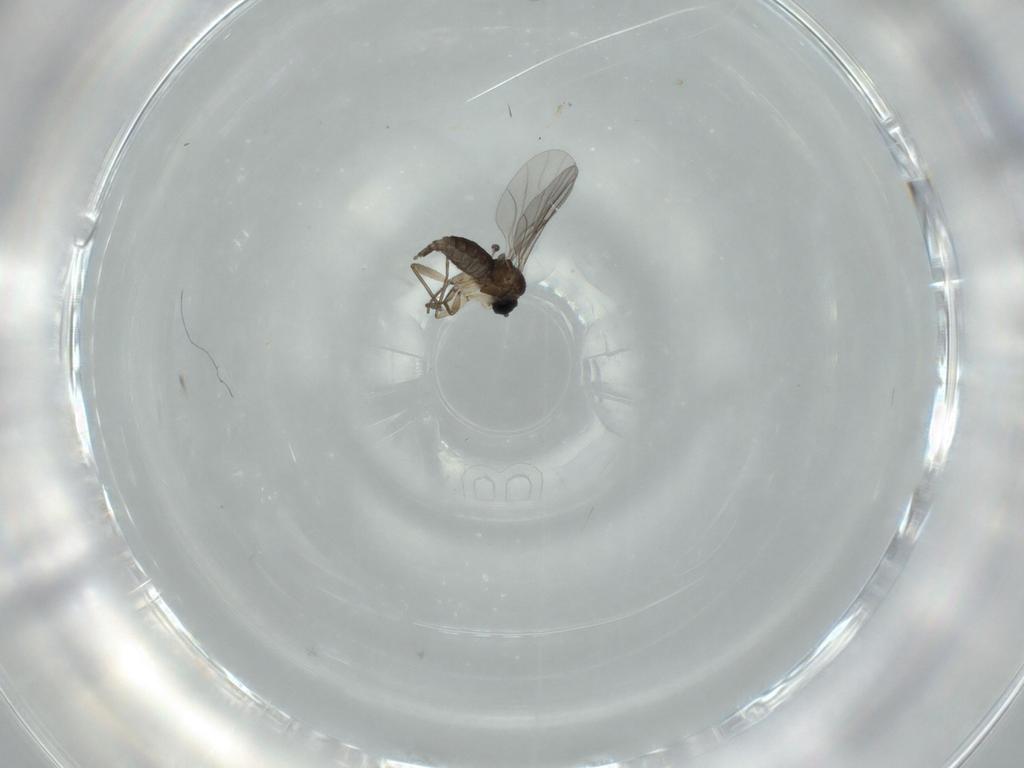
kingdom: Animalia
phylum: Arthropoda
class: Insecta
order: Diptera
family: Sciaridae
